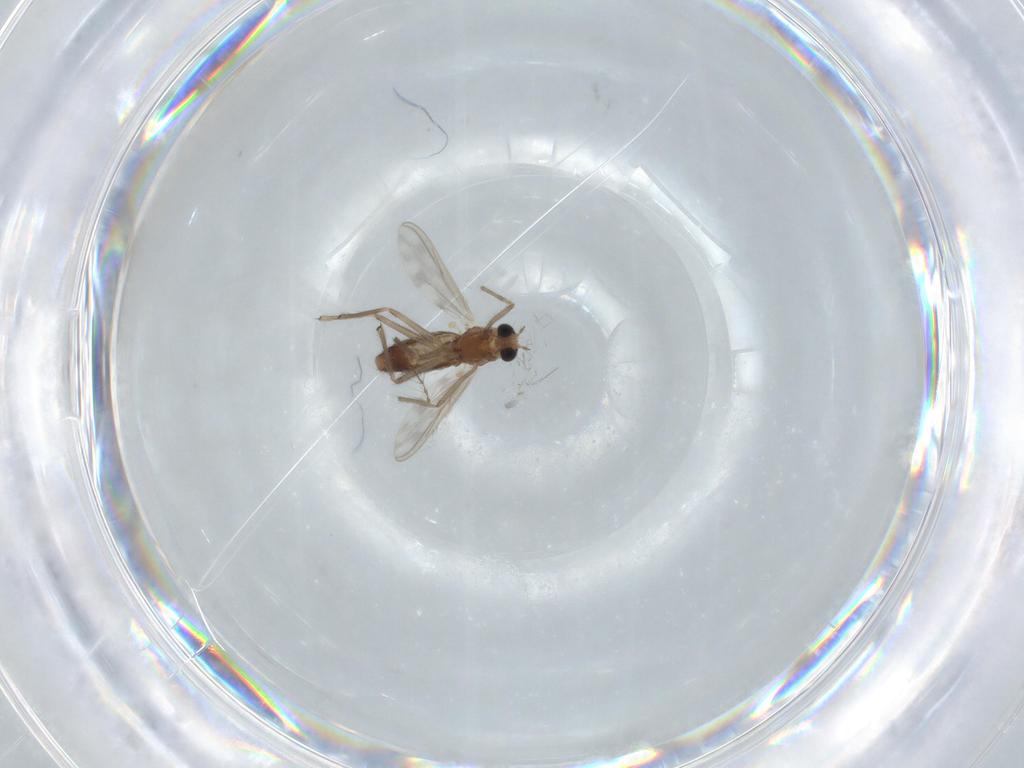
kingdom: Animalia
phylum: Arthropoda
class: Insecta
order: Diptera
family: Chironomidae
